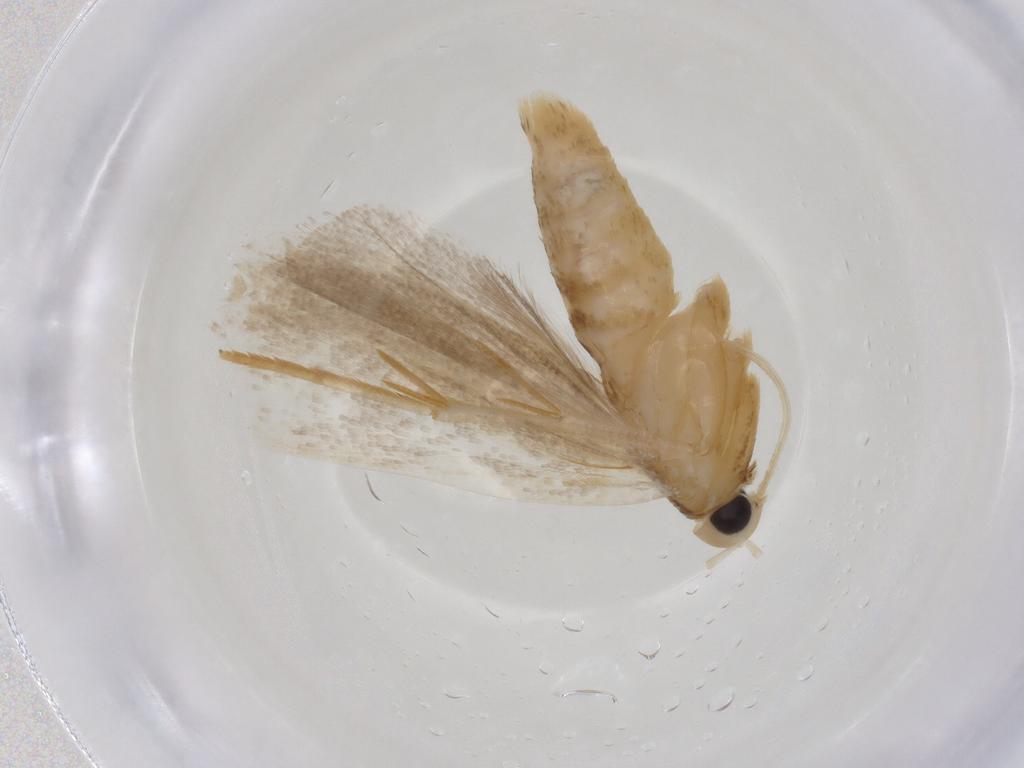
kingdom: Animalia
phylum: Arthropoda
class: Insecta
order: Lepidoptera
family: Gelechiidae
